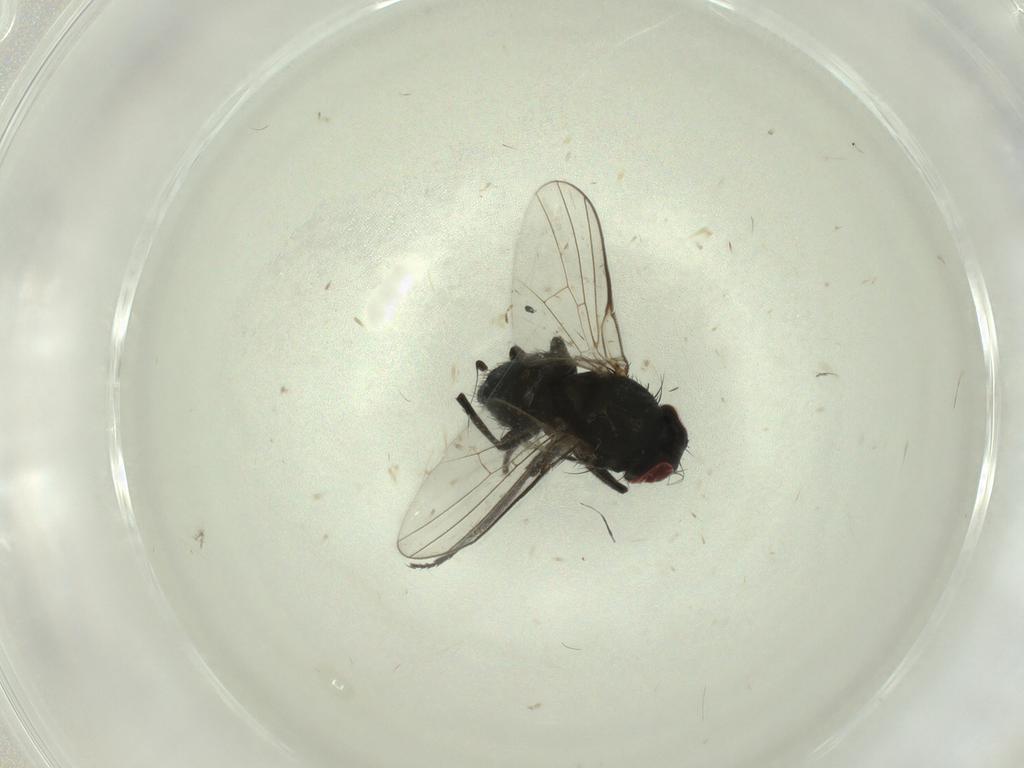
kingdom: Animalia
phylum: Arthropoda
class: Insecta
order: Diptera
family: Agromyzidae
